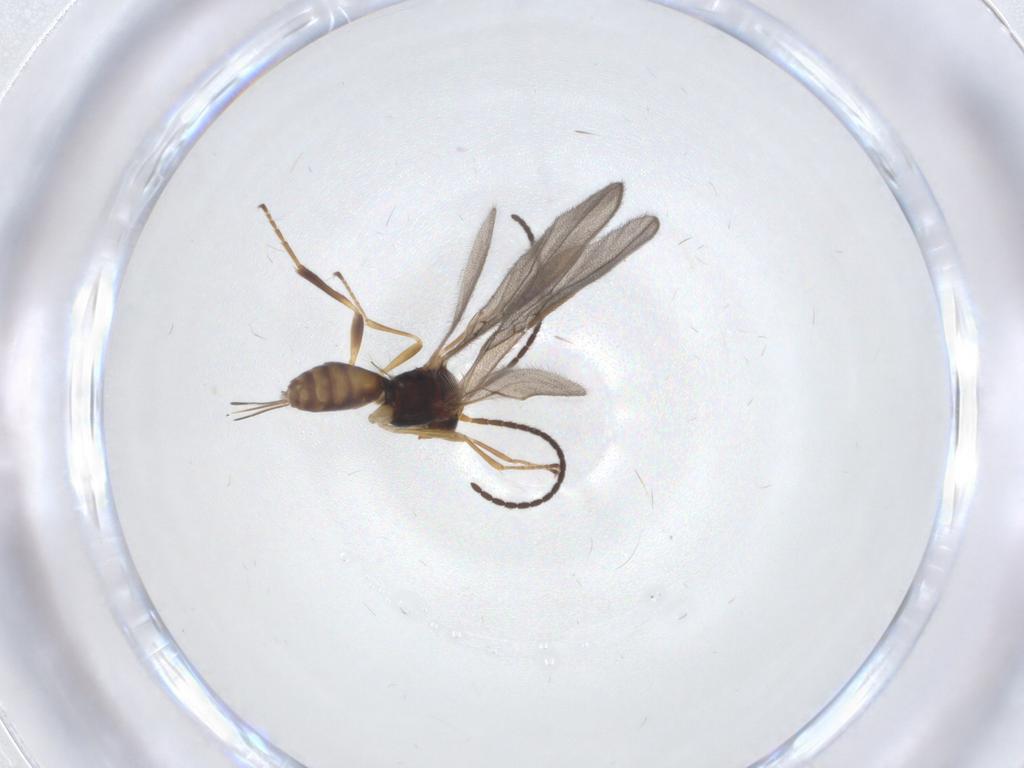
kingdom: Animalia
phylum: Arthropoda
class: Insecta
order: Hymenoptera
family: Braconidae
